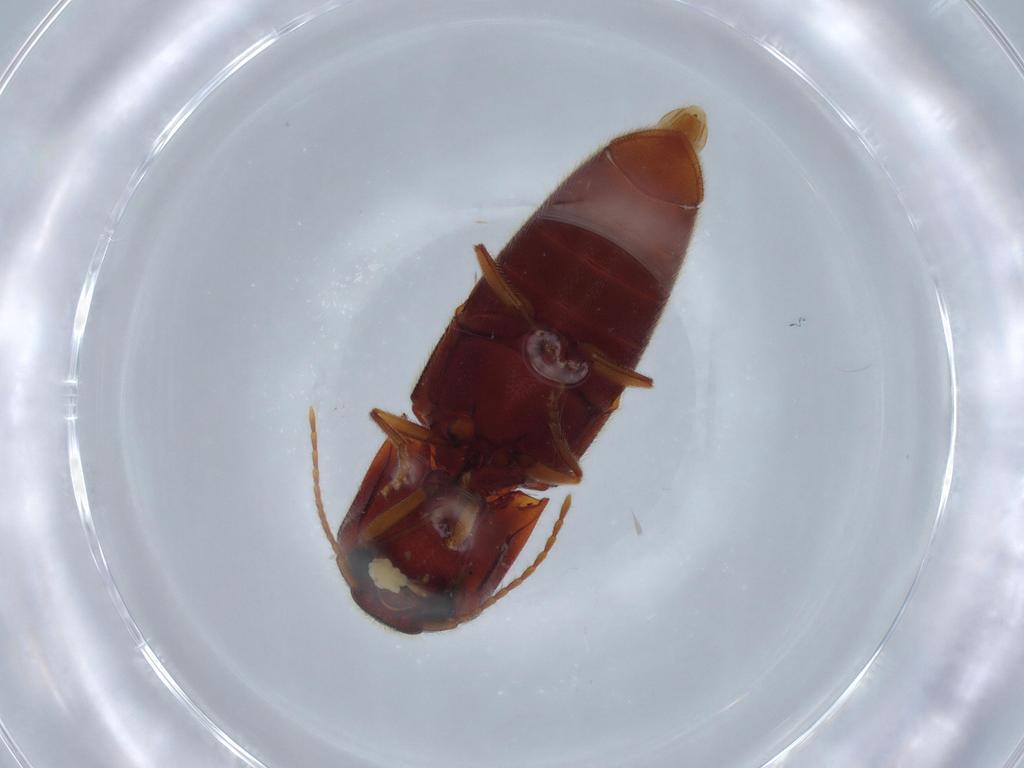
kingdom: Animalia
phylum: Arthropoda
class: Insecta
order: Coleoptera
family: Elateridae
